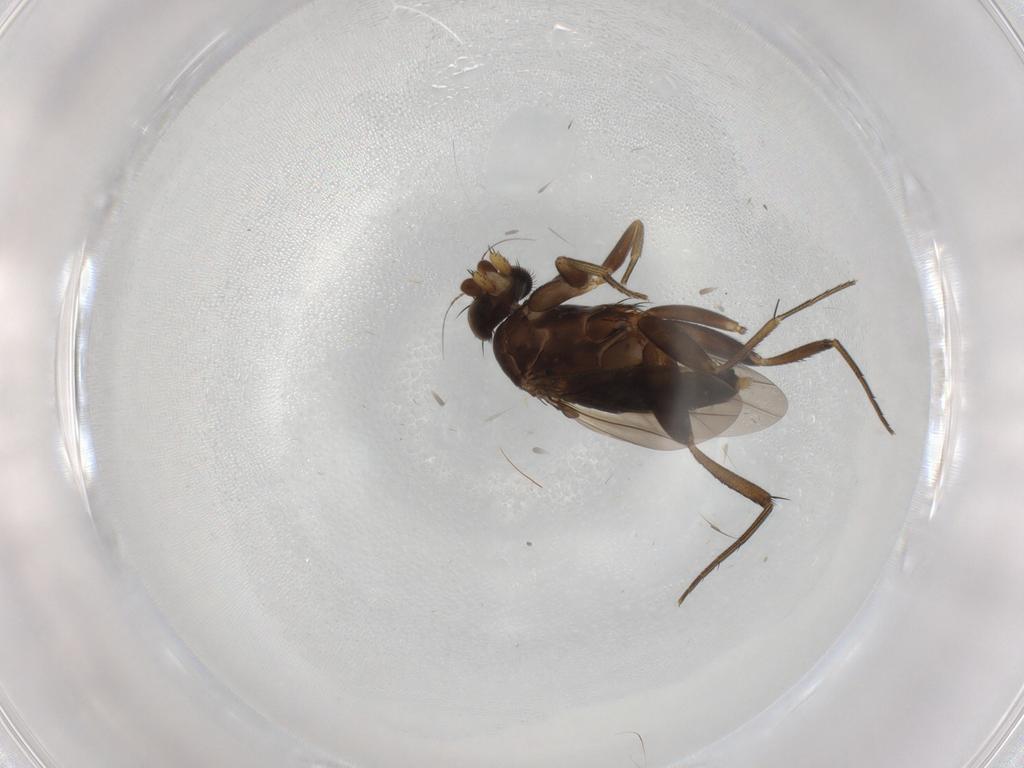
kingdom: Animalia
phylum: Arthropoda
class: Insecta
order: Diptera
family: Phoridae
